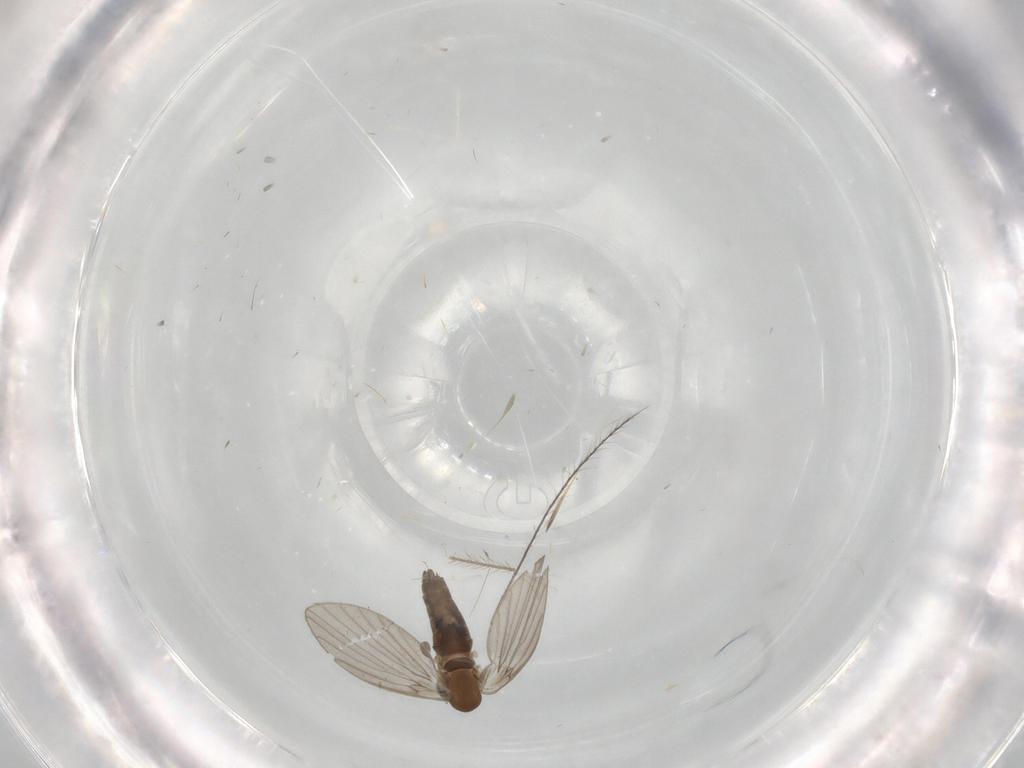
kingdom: Animalia
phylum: Arthropoda
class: Insecta
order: Diptera
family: Cecidomyiidae
